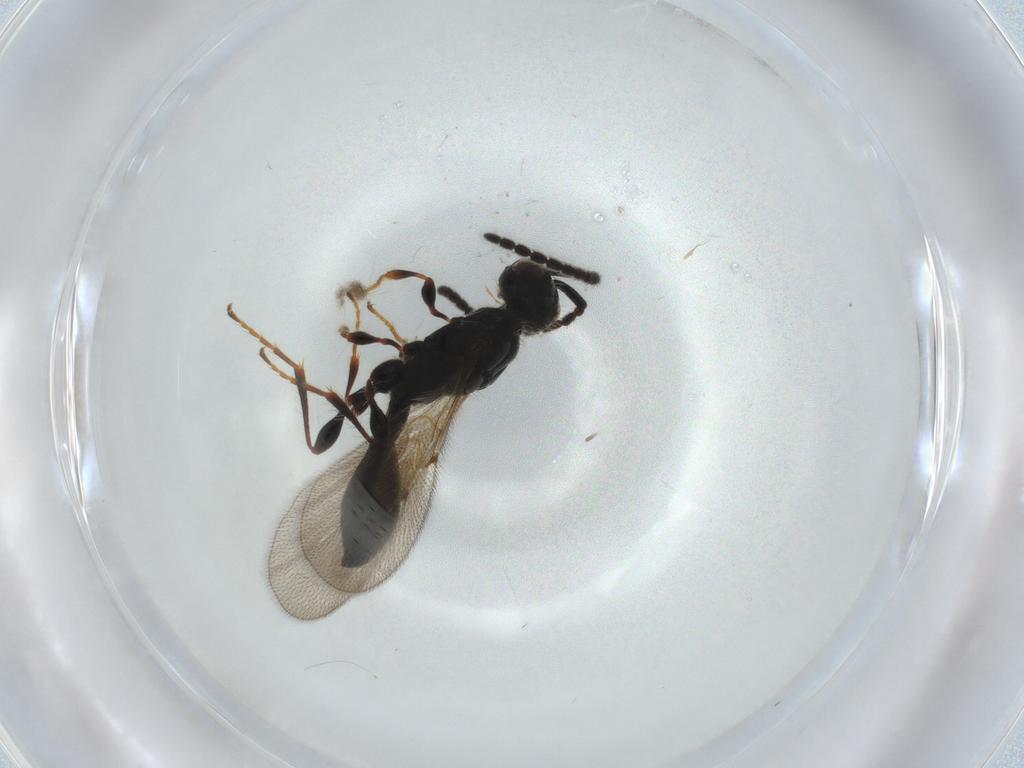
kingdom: Animalia
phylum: Arthropoda
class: Insecta
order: Hymenoptera
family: Diapriidae
